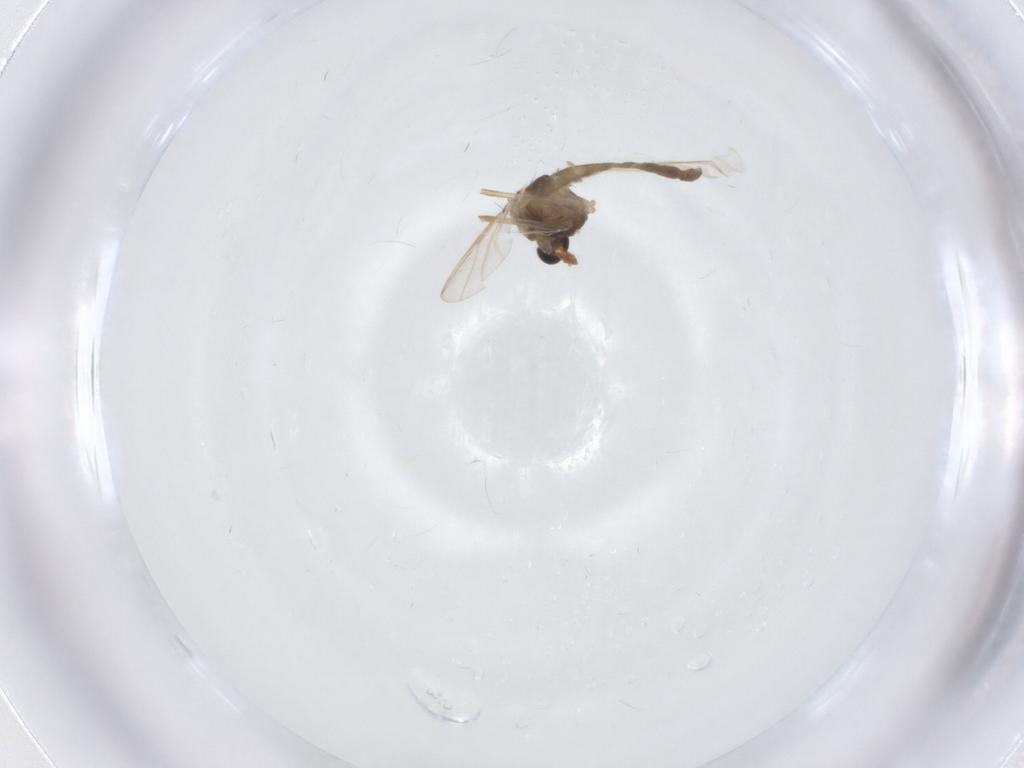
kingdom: Animalia
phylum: Arthropoda
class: Insecta
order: Diptera
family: Chironomidae
